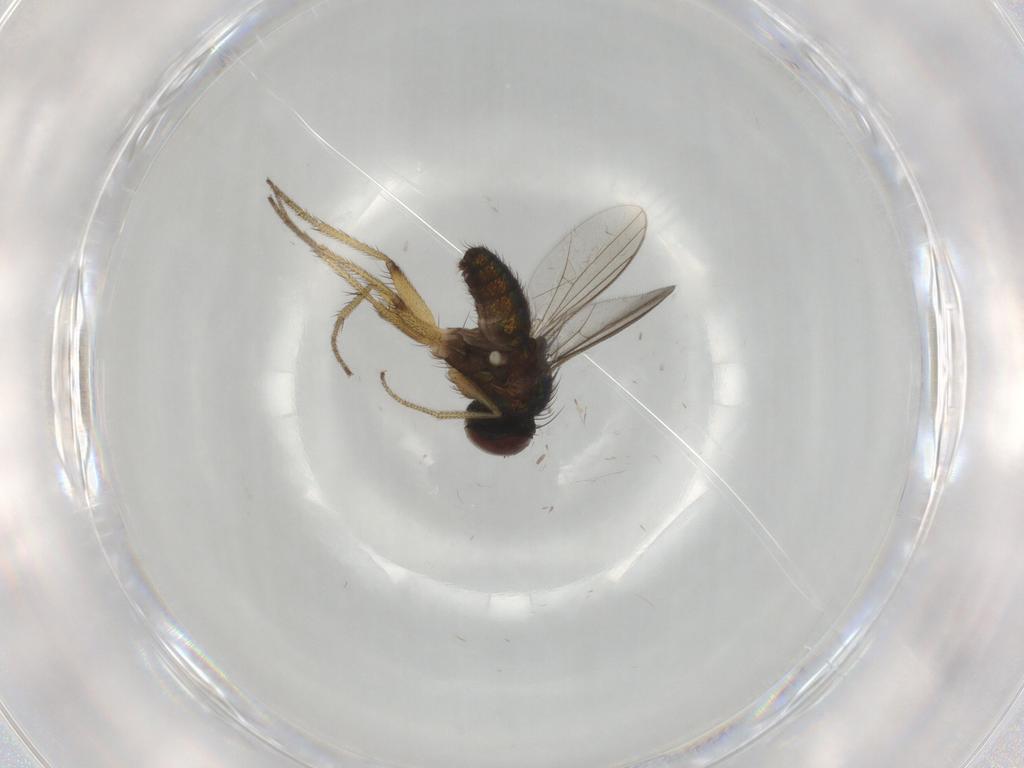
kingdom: Animalia
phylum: Arthropoda
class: Insecta
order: Diptera
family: Dolichopodidae
